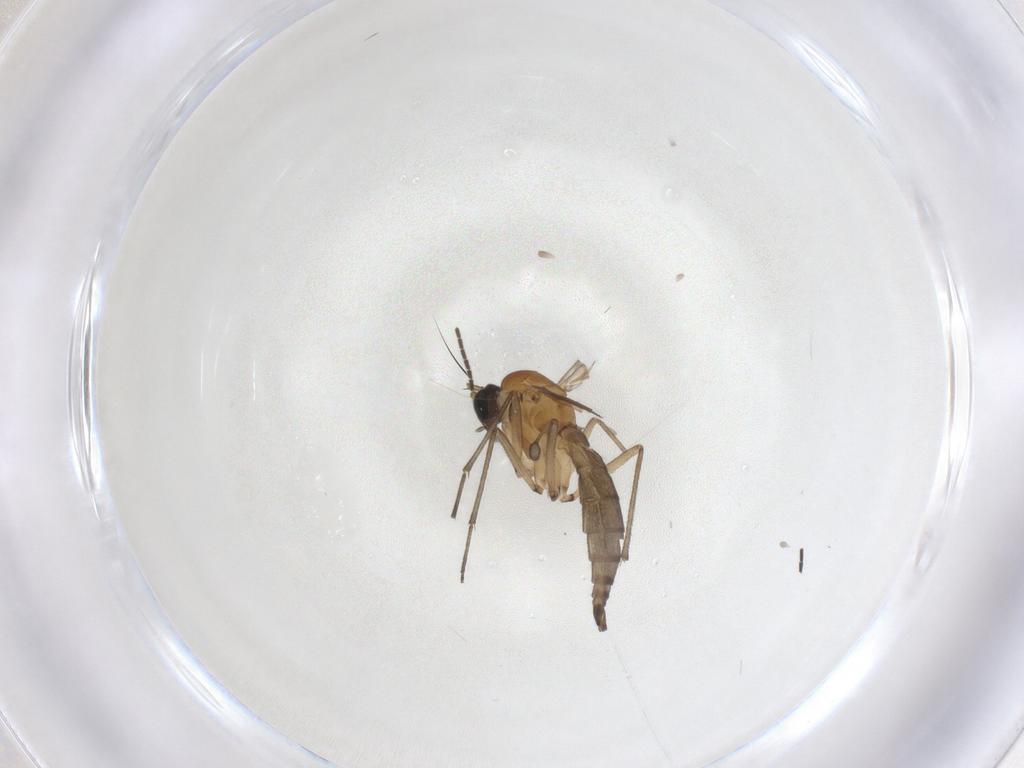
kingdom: Animalia
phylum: Arthropoda
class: Insecta
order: Diptera
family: Sciaridae
